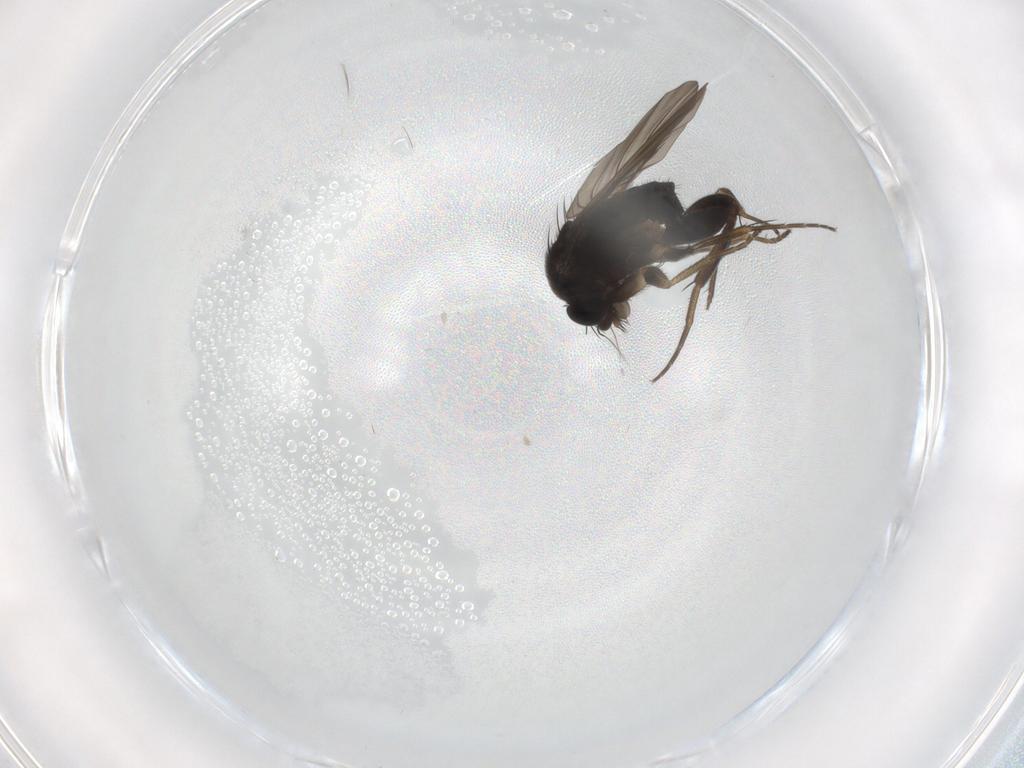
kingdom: Animalia
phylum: Arthropoda
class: Insecta
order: Diptera
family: Phoridae
